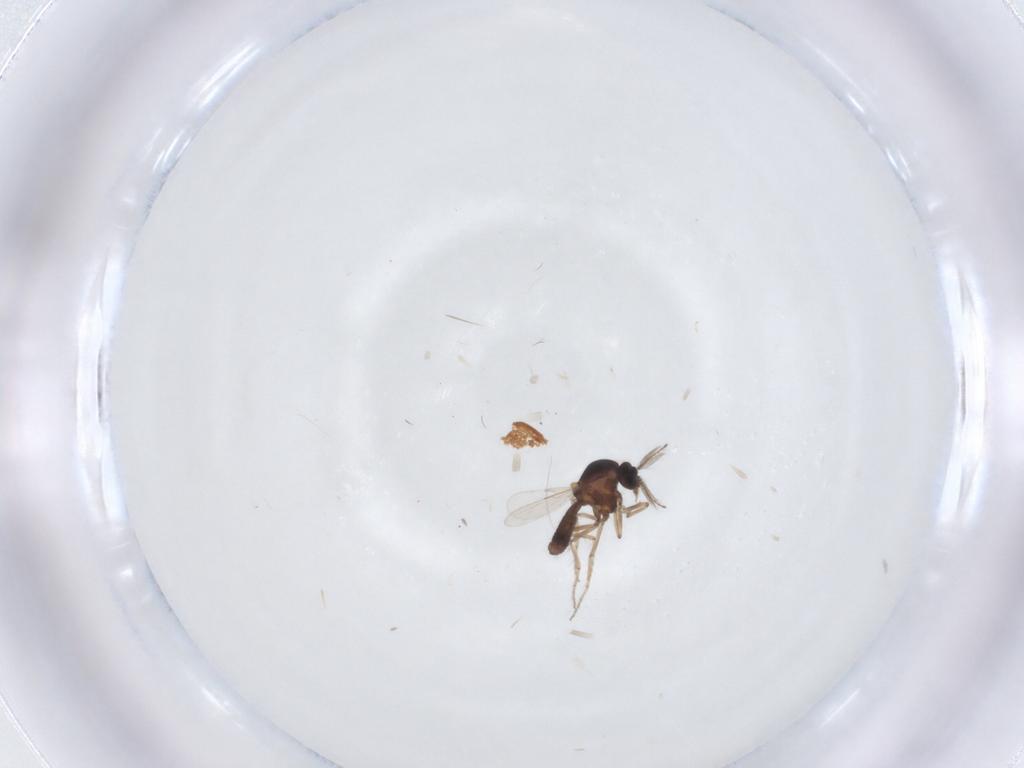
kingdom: Animalia
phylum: Arthropoda
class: Insecta
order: Diptera
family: Ceratopogonidae
